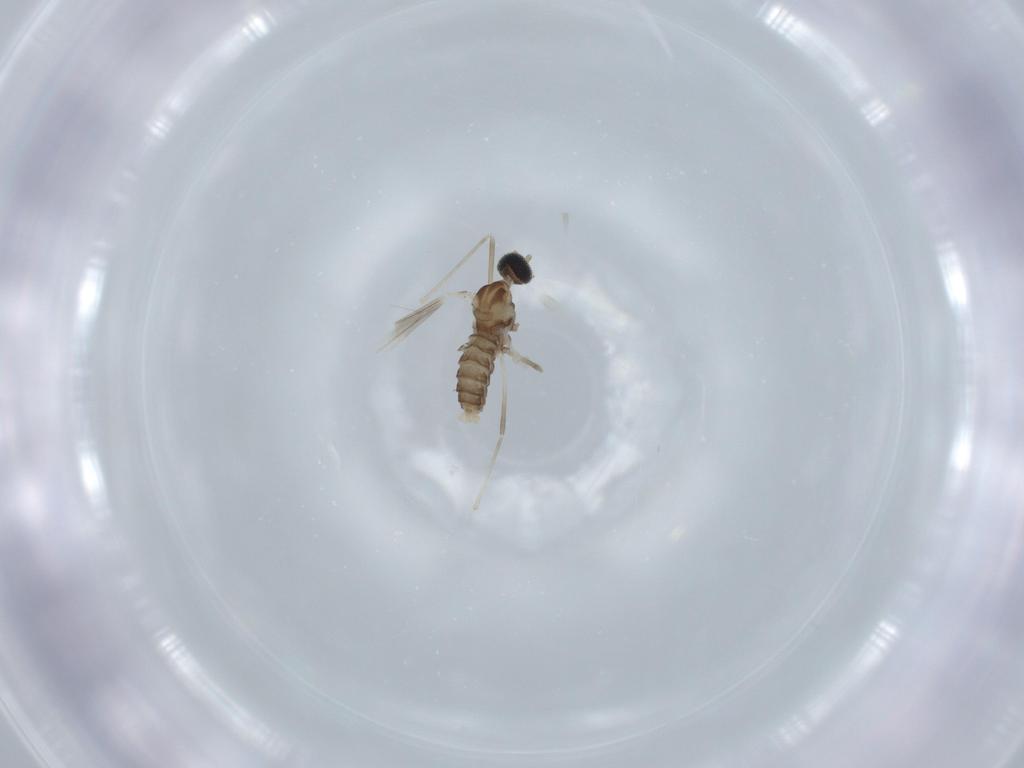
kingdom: Animalia
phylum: Arthropoda
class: Insecta
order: Diptera
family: Cecidomyiidae
